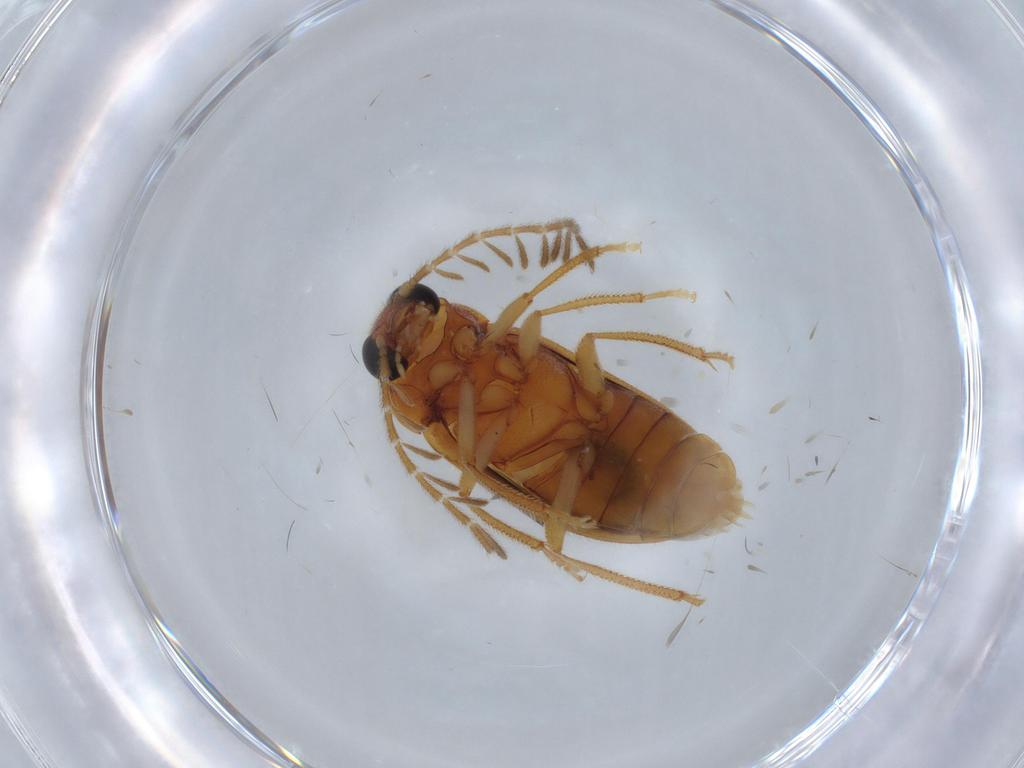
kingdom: Animalia
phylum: Arthropoda
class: Insecta
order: Coleoptera
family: Ptilodactylidae
